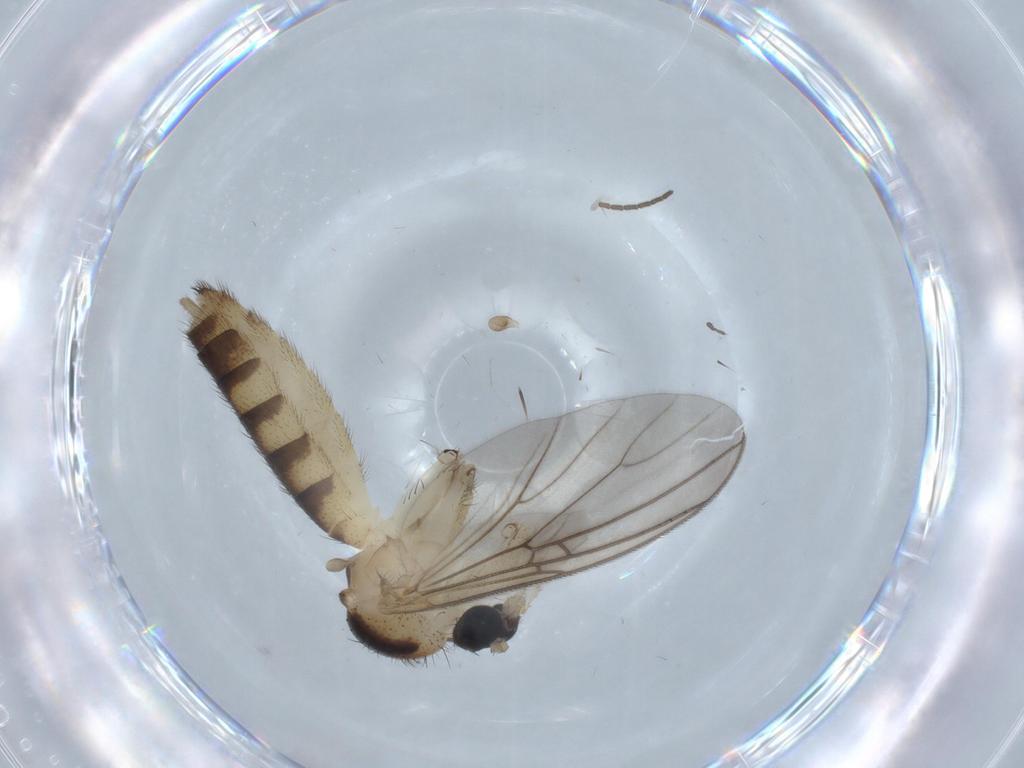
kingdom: Animalia
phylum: Arthropoda
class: Insecta
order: Diptera
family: Mycetophilidae
